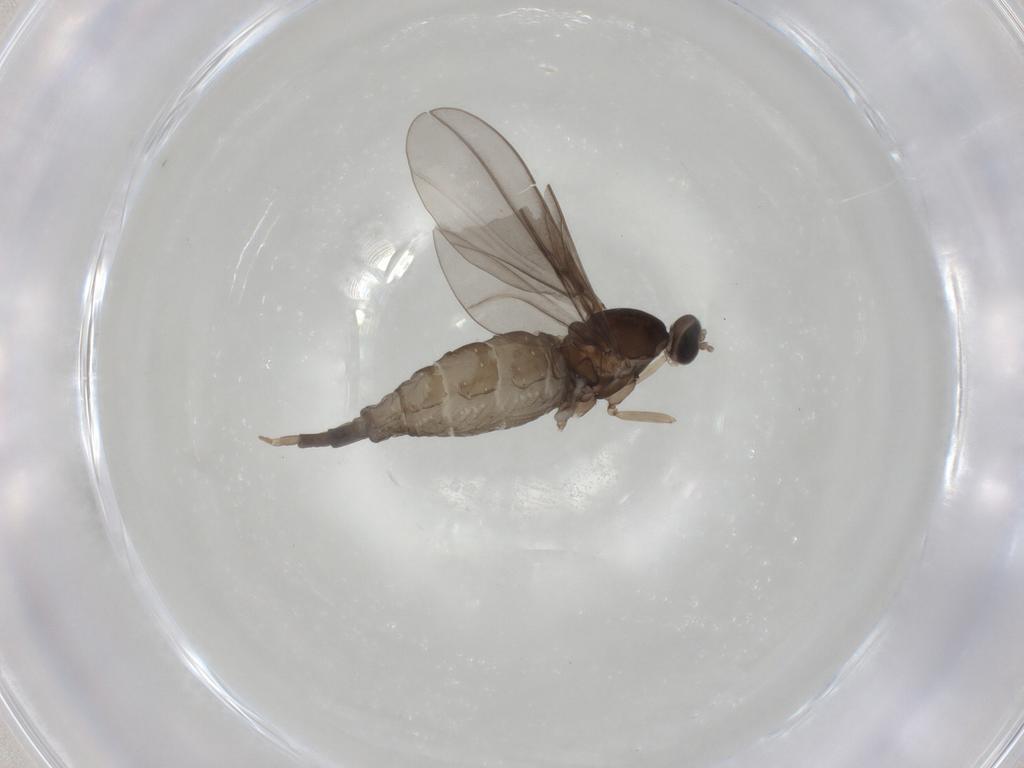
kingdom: Animalia
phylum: Arthropoda
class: Insecta
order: Diptera
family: Cecidomyiidae
